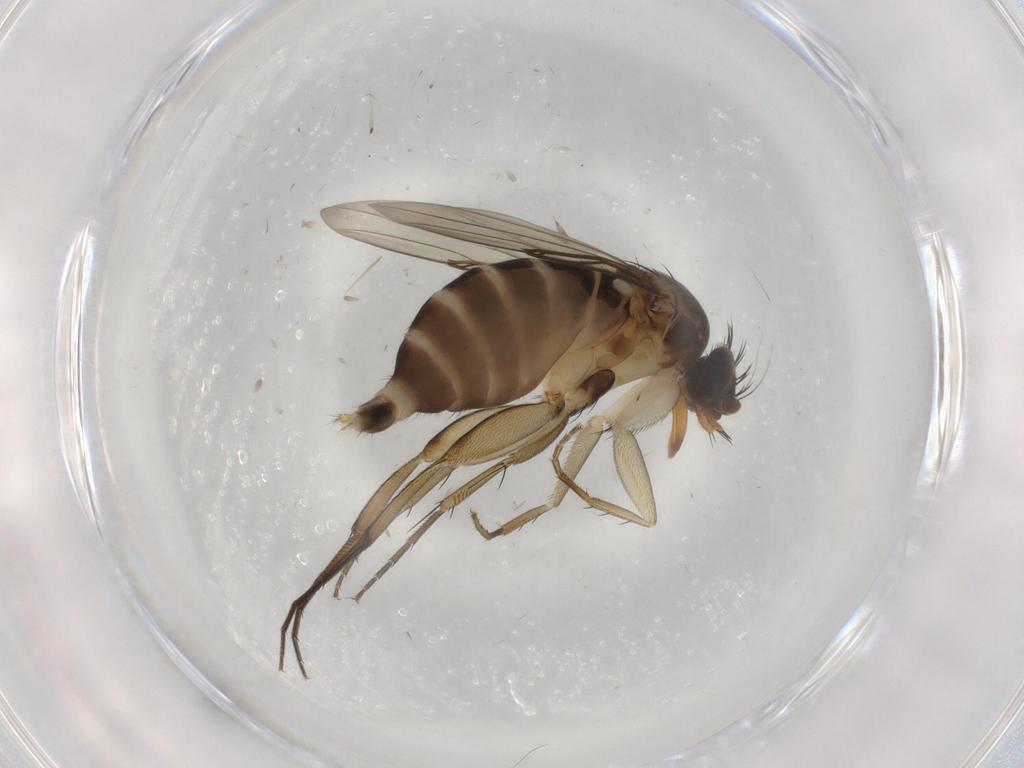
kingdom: Animalia
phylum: Arthropoda
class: Insecta
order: Diptera
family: Phoridae
